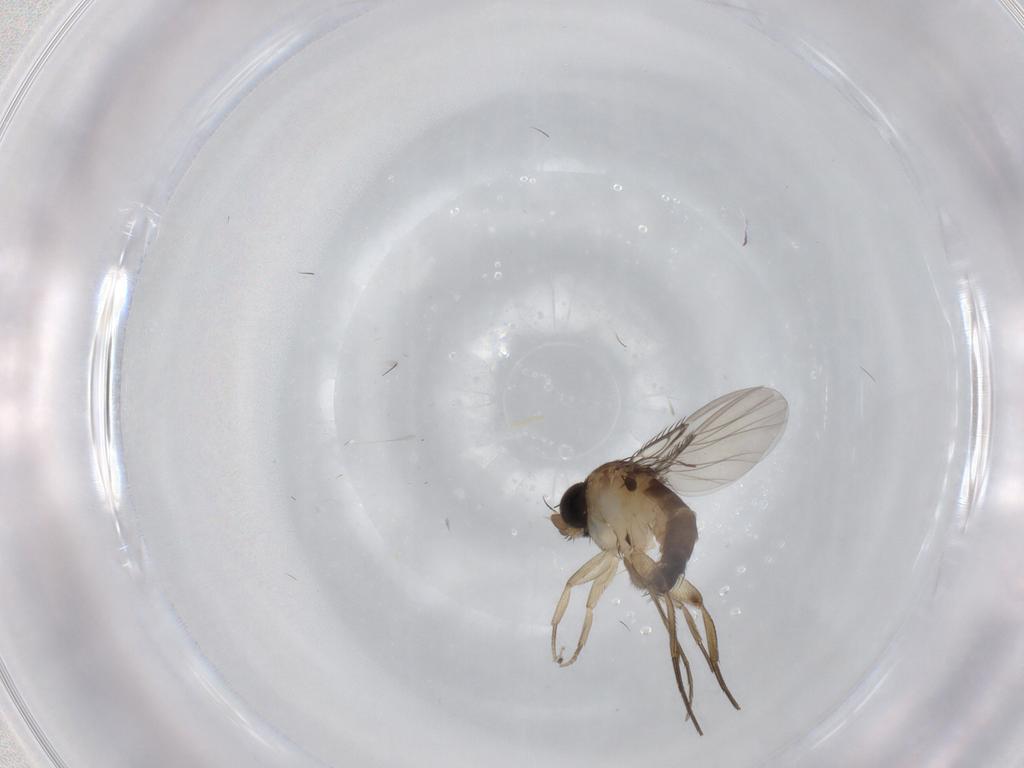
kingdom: Animalia
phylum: Arthropoda
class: Insecta
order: Diptera
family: Phoridae
